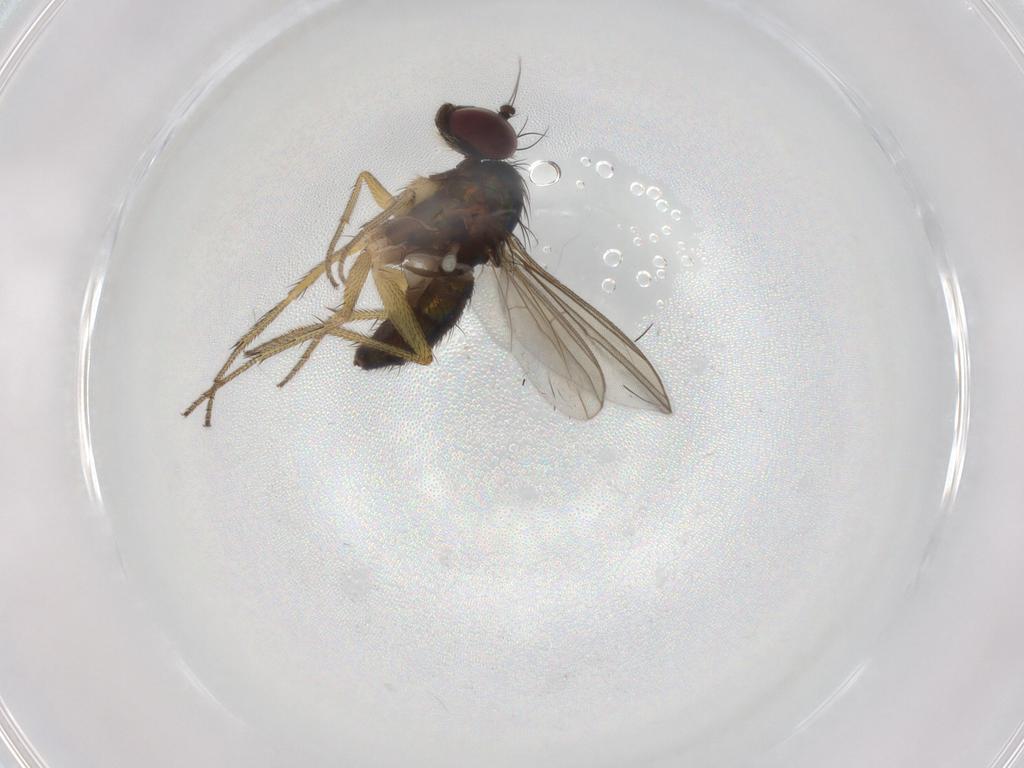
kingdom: Animalia
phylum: Arthropoda
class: Insecta
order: Diptera
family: Dolichopodidae
